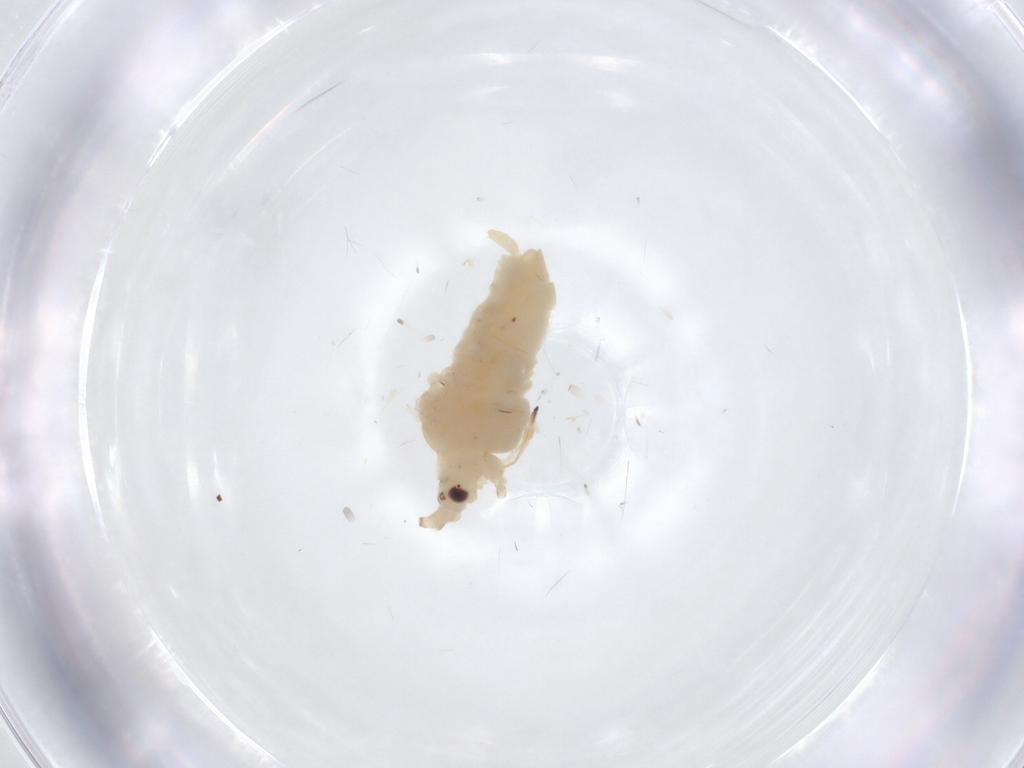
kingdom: Animalia
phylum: Arthropoda
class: Insecta
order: Hemiptera
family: Aphididae
